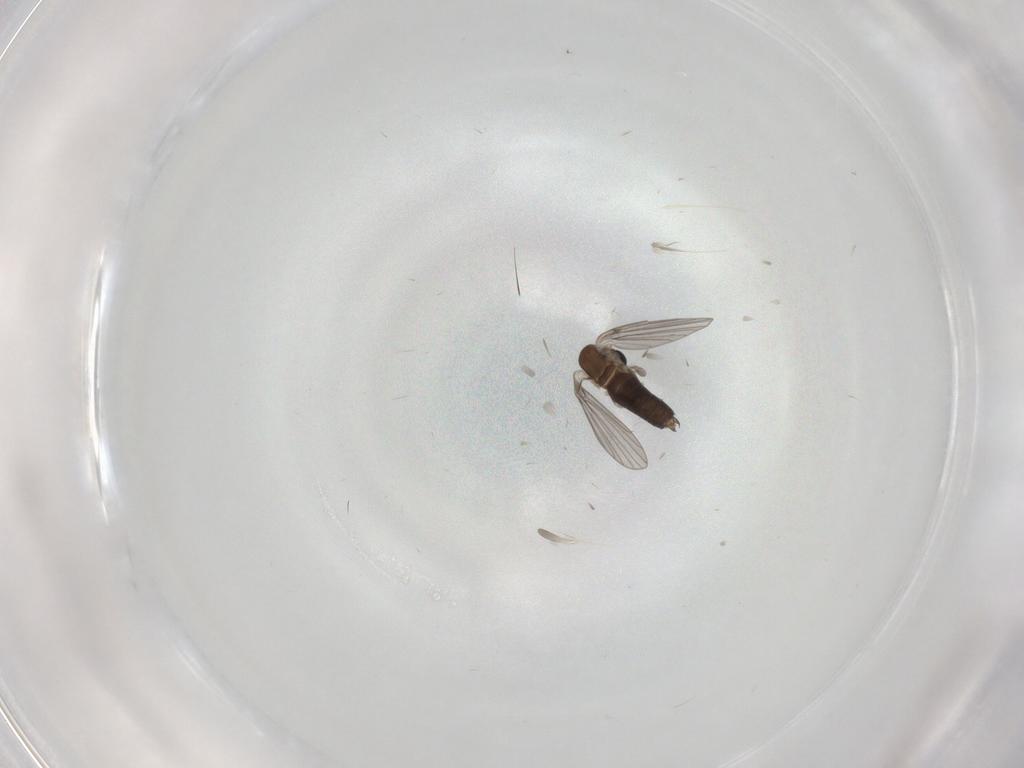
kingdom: Animalia
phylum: Arthropoda
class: Insecta
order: Diptera
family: Psychodidae
